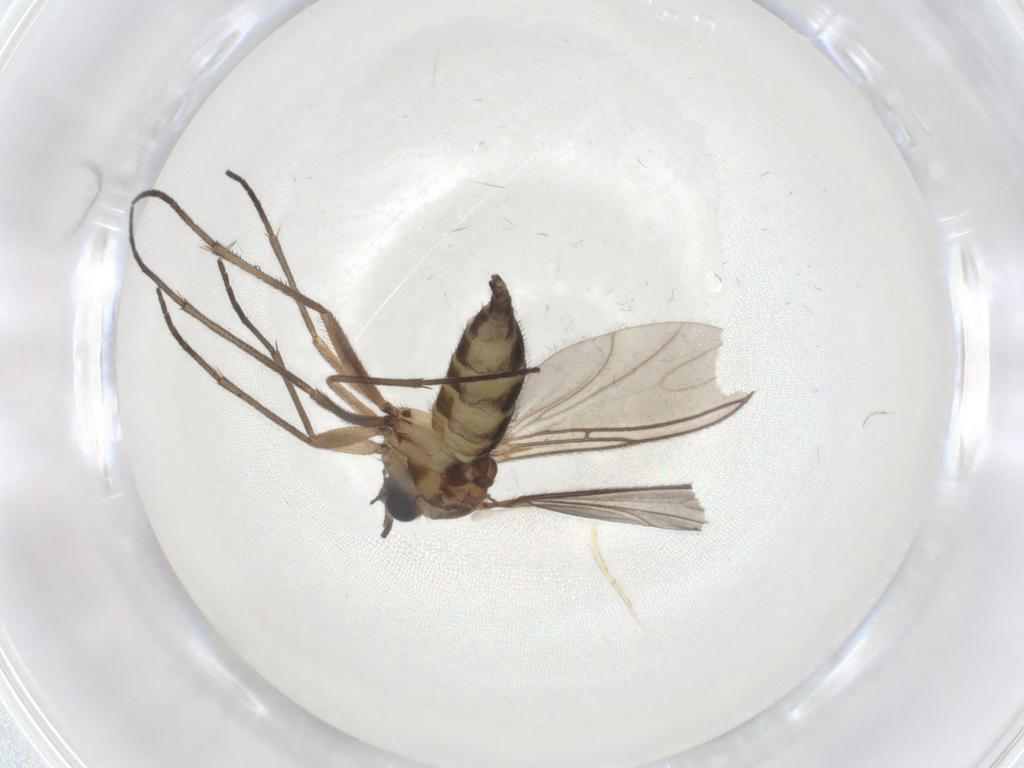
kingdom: Animalia
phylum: Arthropoda
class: Insecta
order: Diptera
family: Sciaridae
